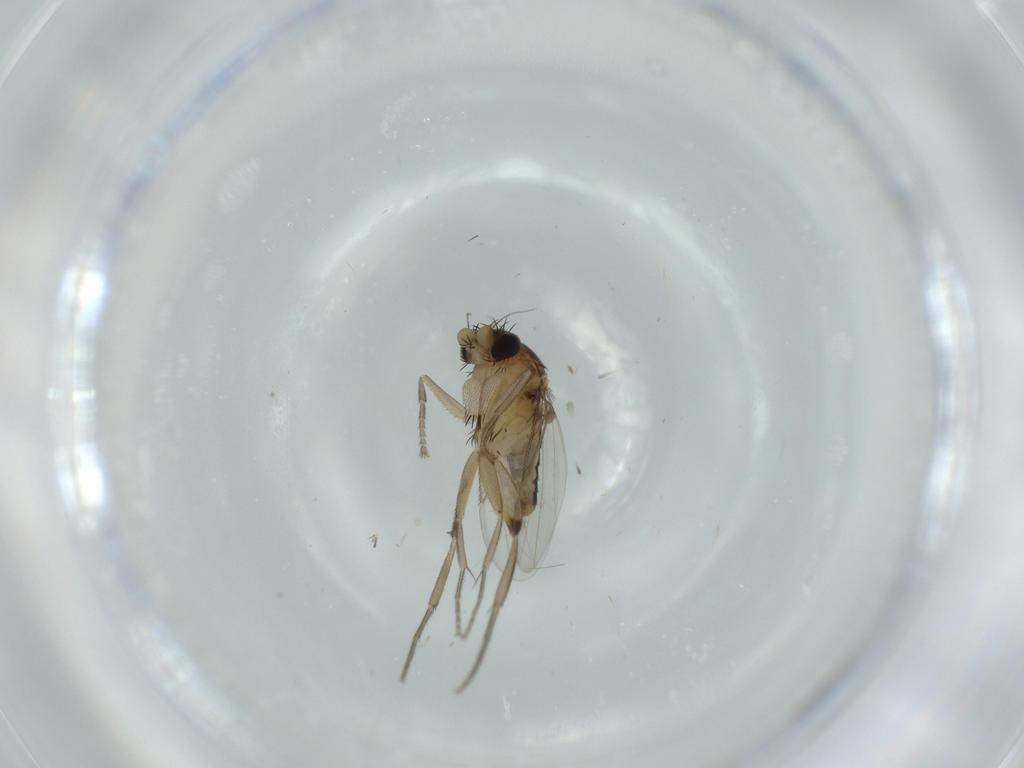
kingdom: Animalia
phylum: Arthropoda
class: Insecta
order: Diptera
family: Phoridae
